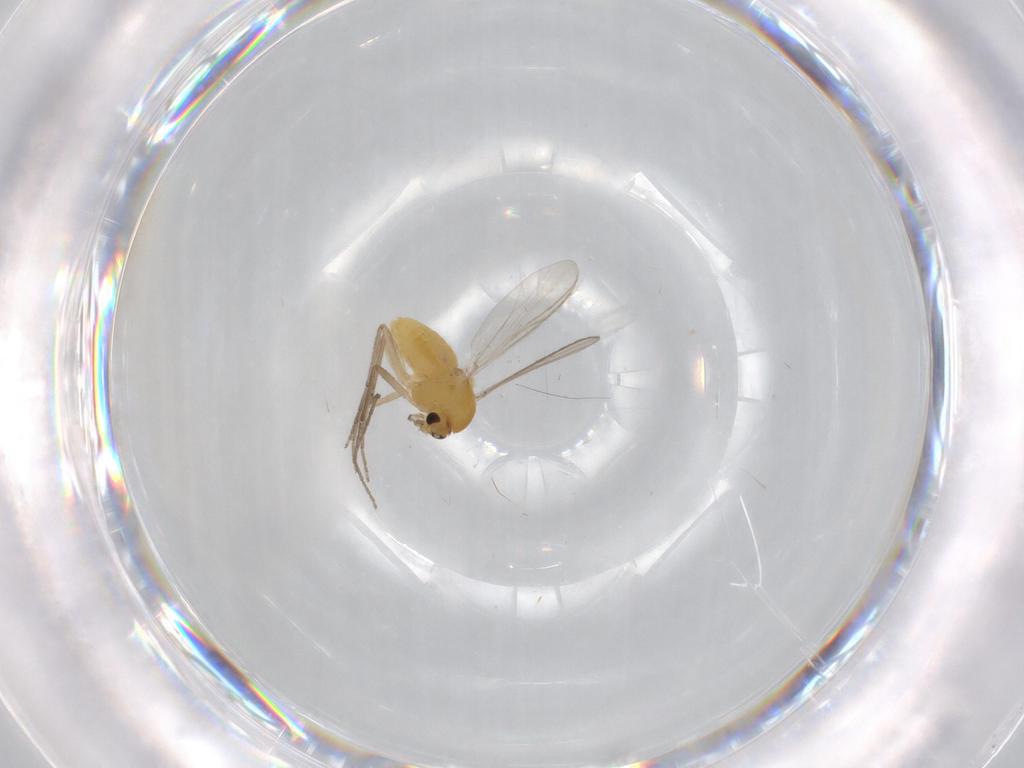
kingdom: Animalia
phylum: Arthropoda
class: Insecta
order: Diptera
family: Chironomidae
